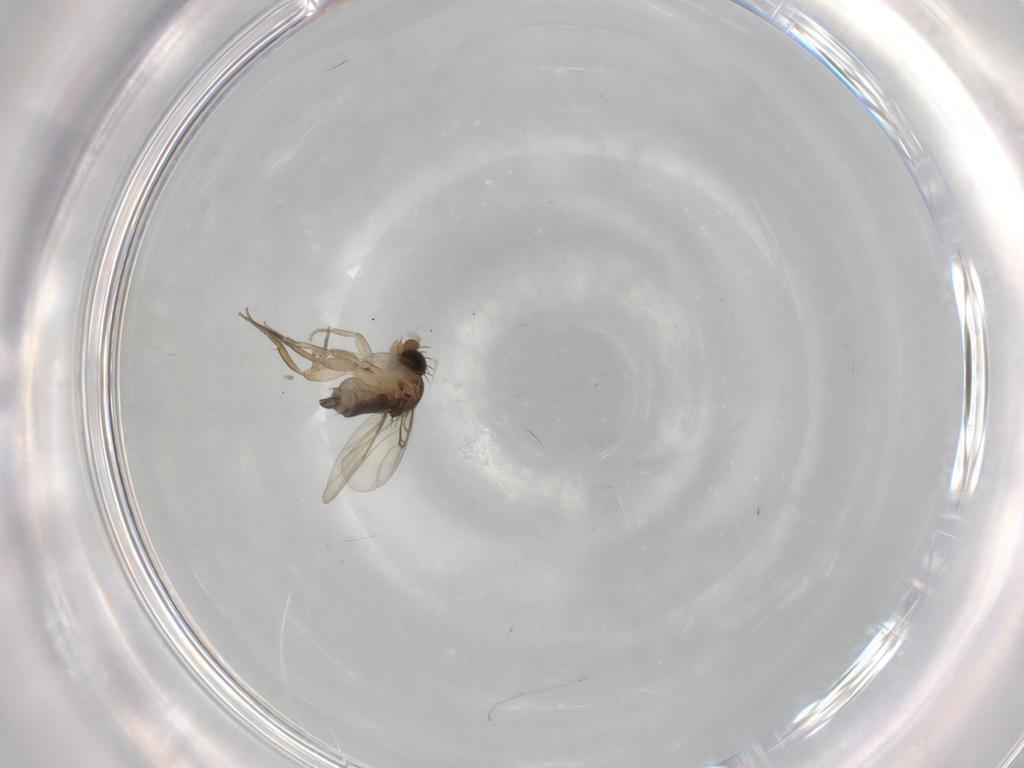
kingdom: Animalia
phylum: Arthropoda
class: Insecta
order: Diptera
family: Phoridae
